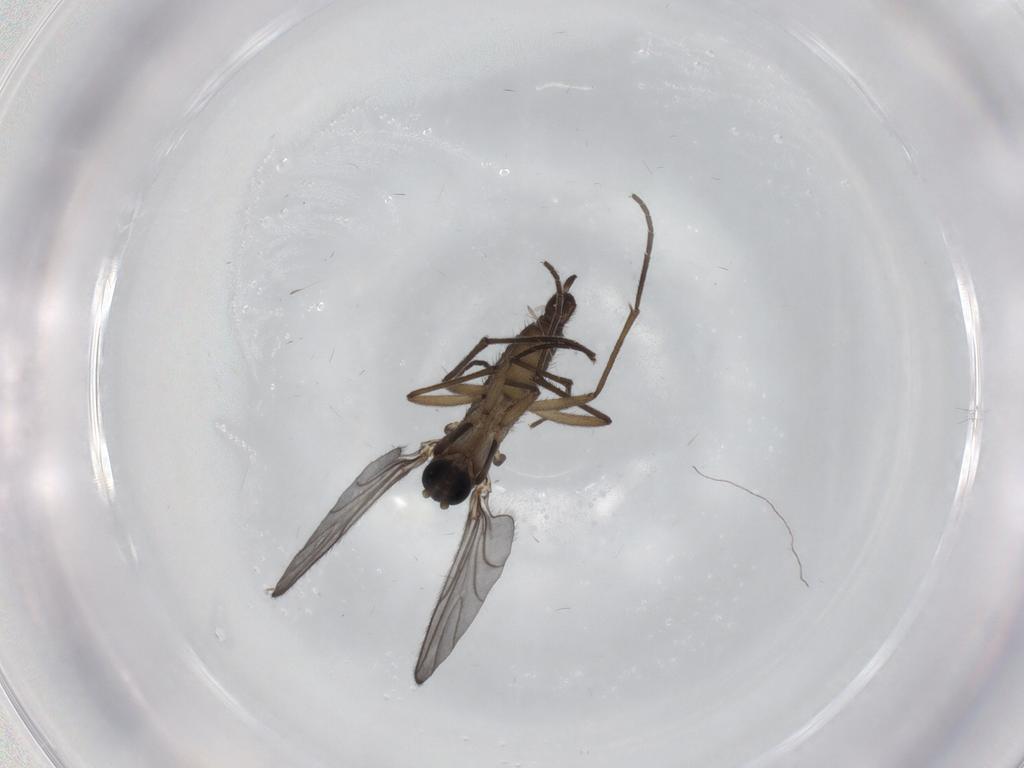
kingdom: Animalia
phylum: Arthropoda
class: Insecta
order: Diptera
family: Sciaridae
